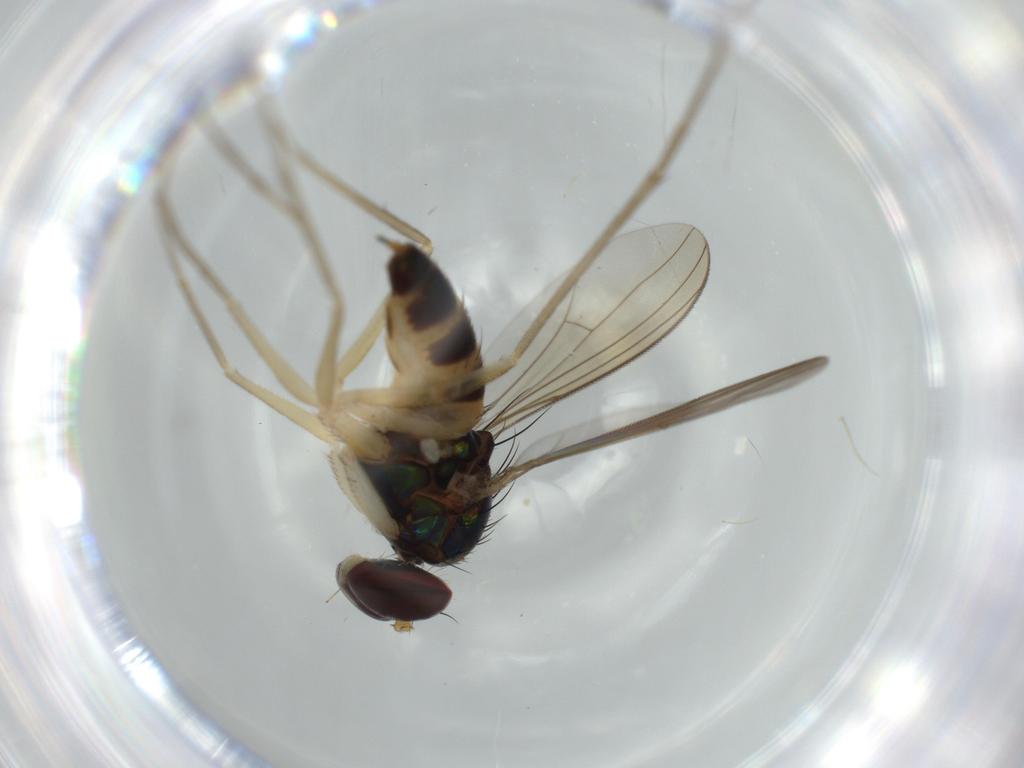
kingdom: Animalia
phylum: Arthropoda
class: Insecta
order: Diptera
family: Dolichopodidae
